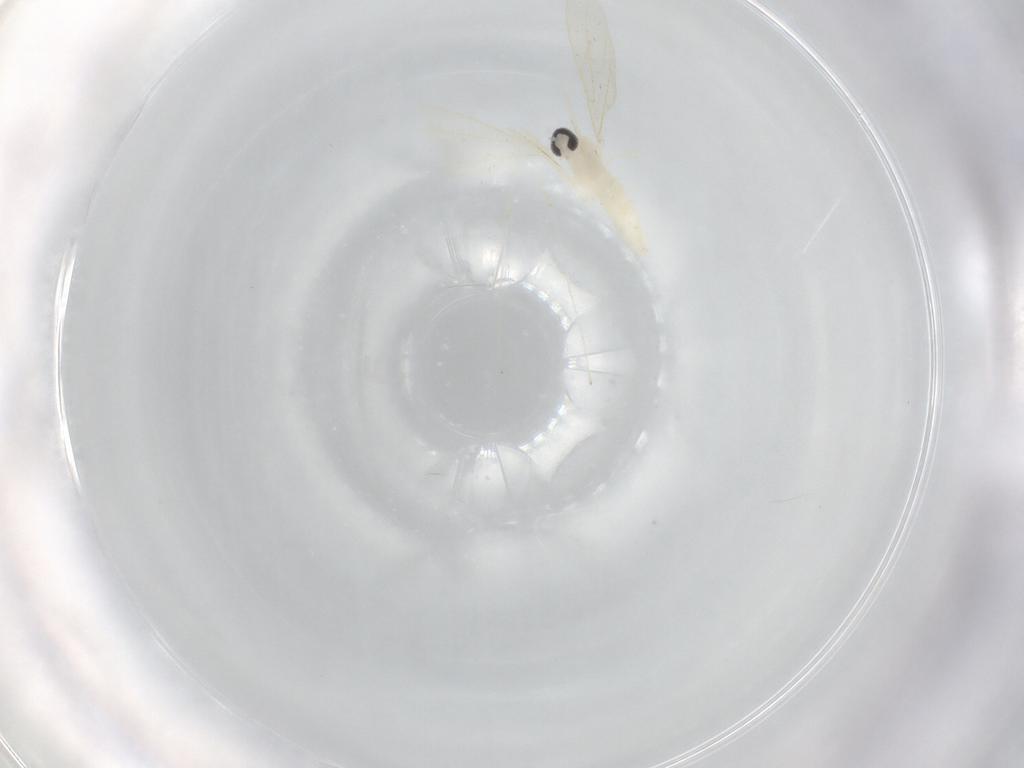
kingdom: Animalia
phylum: Arthropoda
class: Insecta
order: Diptera
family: Cecidomyiidae
